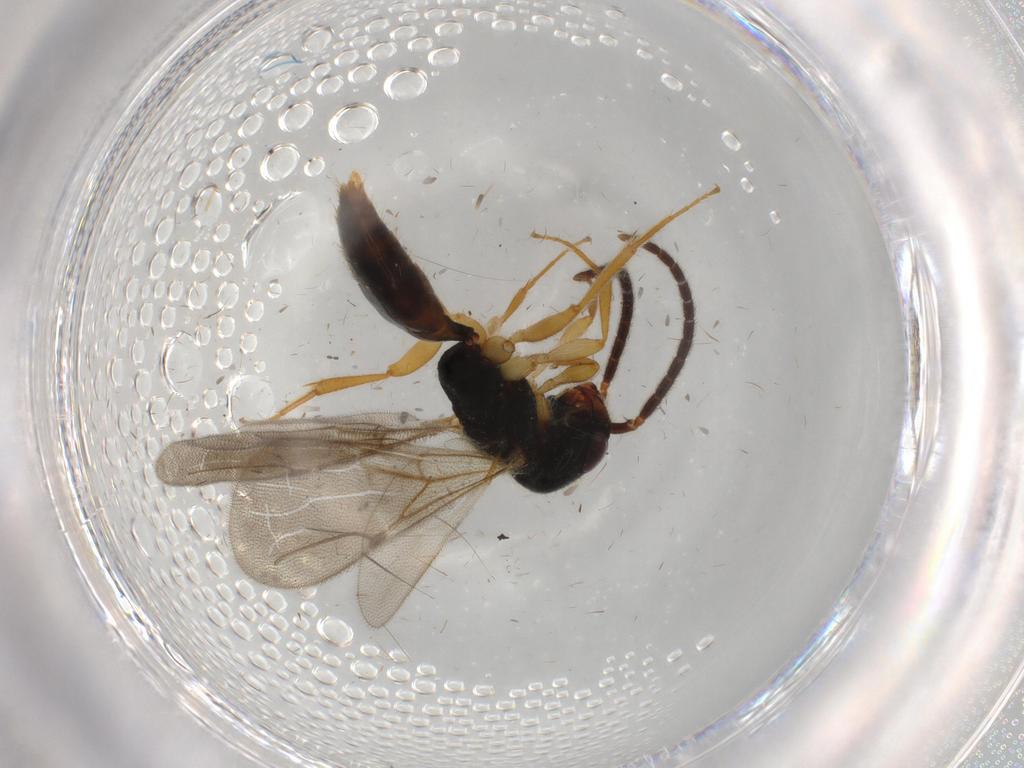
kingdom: Animalia
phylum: Arthropoda
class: Insecta
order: Hymenoptera
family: Bethylidae
